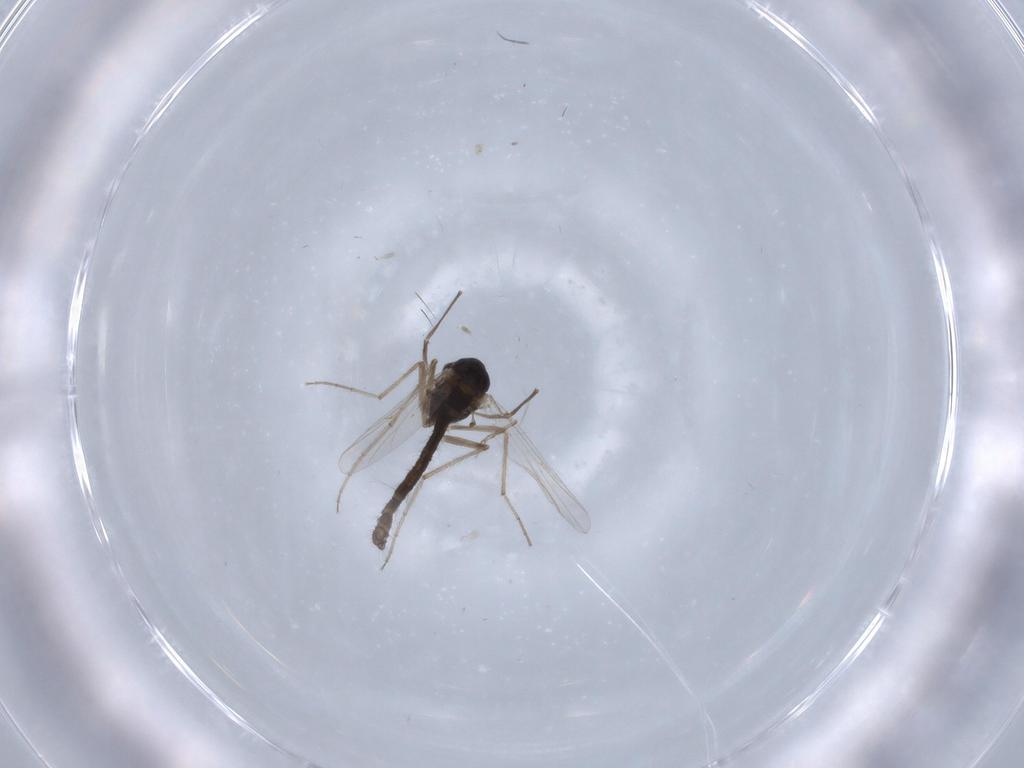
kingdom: Animalia
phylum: Arthropoda
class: Insecta
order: Diptera
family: Chironomidae
